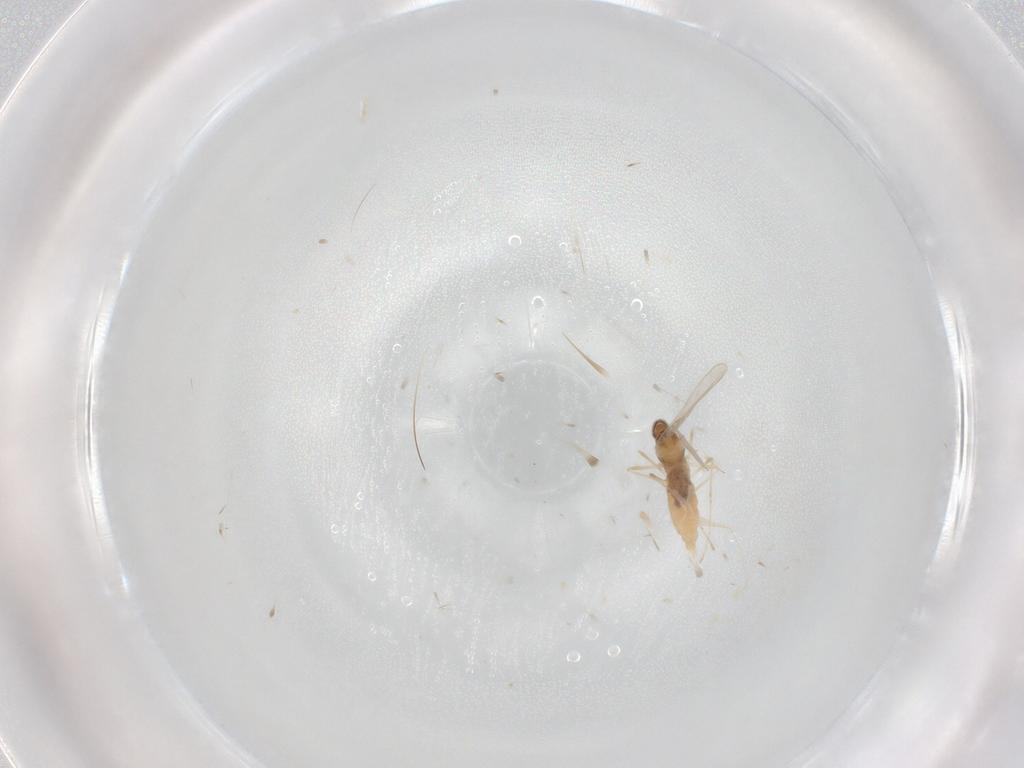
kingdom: Animalia
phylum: Arthropoda
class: Insecta
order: Diptera
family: Cecidomyiidae
